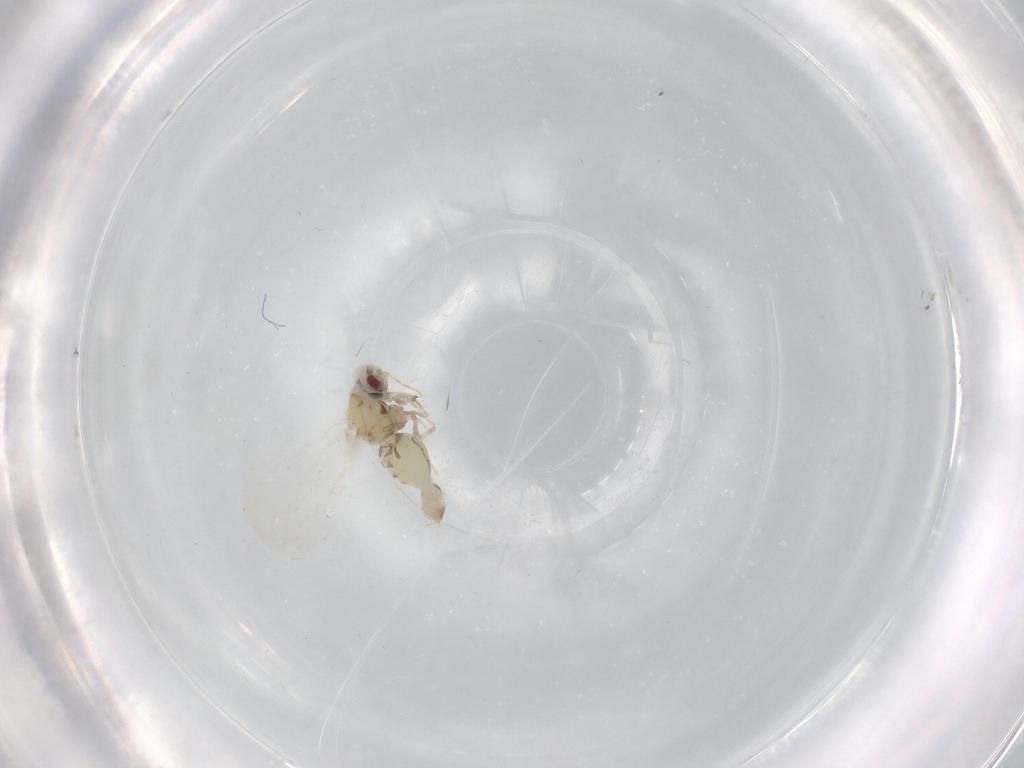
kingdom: Animalia
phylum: Arthropoda
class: Insecta
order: Hemiptera
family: Aleyrodidae
